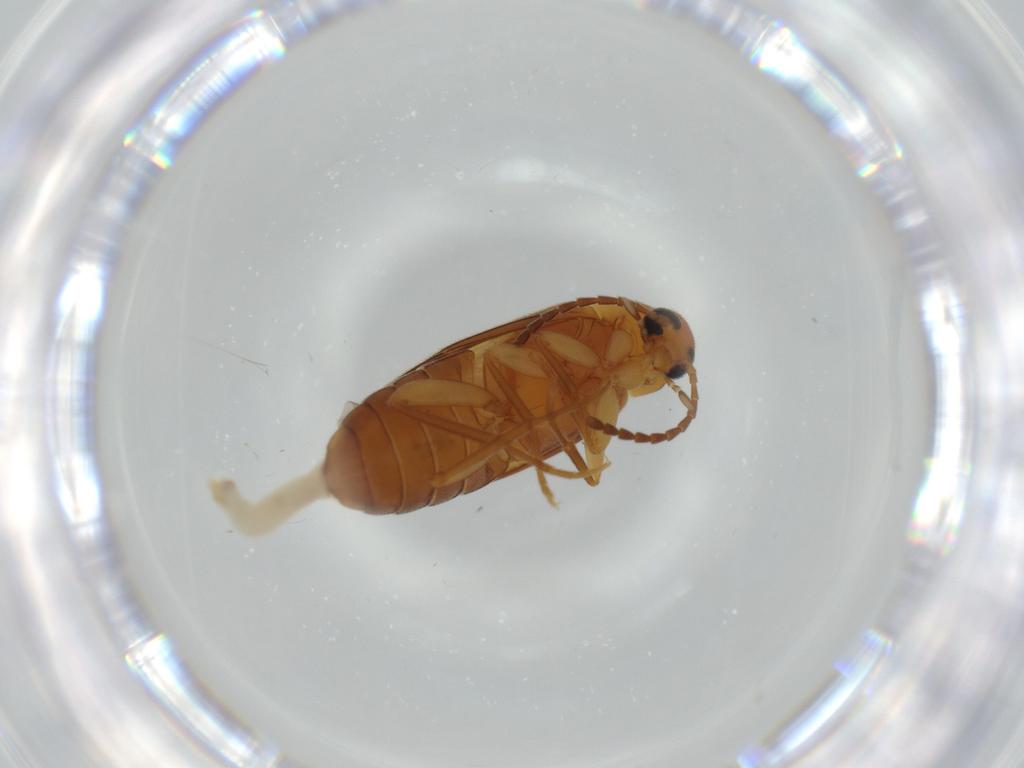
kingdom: Animalia
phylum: Arthropoda
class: Insecta
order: Coleoptera
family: Scraptiidae
